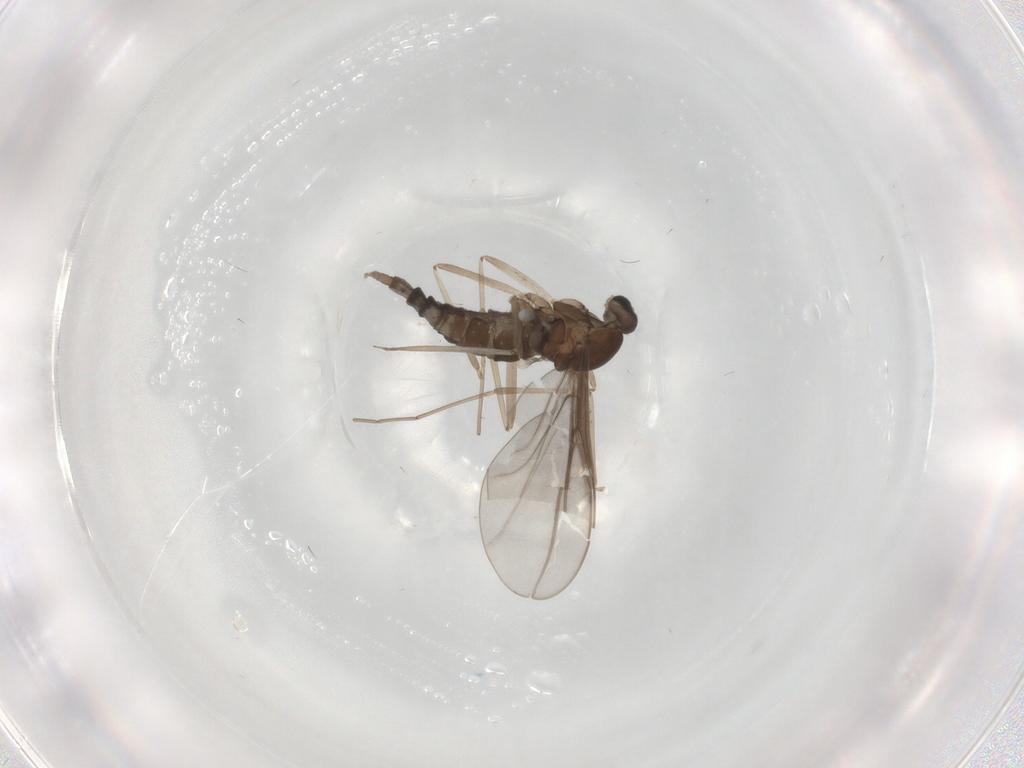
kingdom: Animalia
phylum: Arthropoda
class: Insecta
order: Diptera
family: Cecidomyiidae
